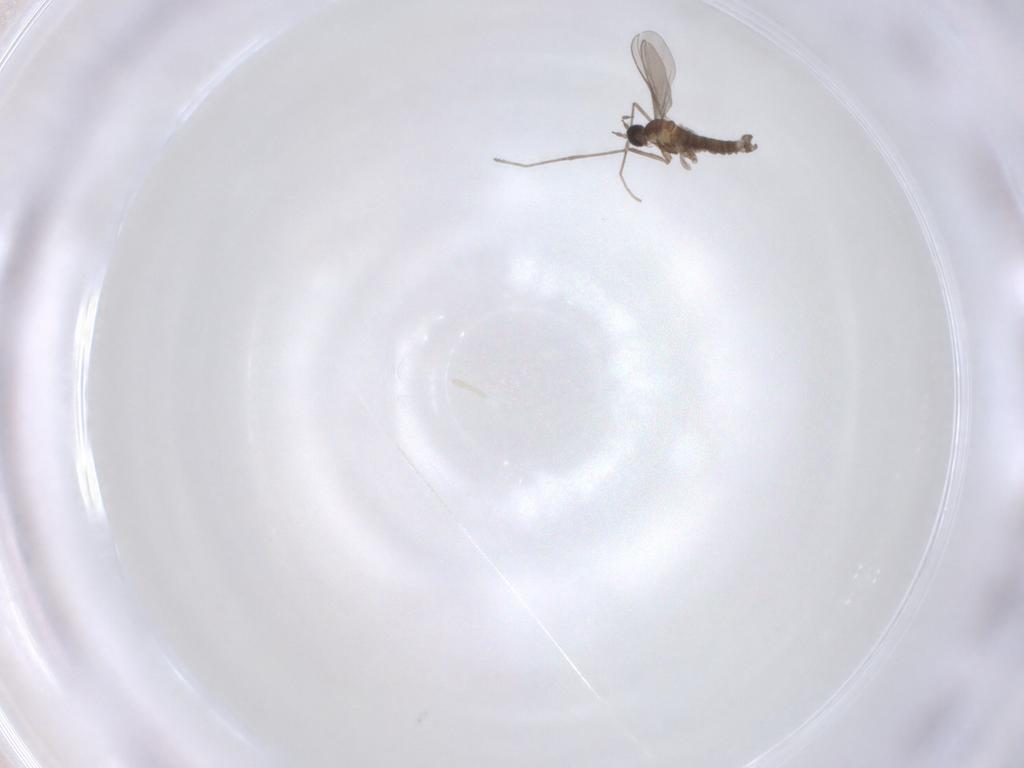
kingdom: Animalia
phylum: Arthropoda
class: Insecta
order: Diptera
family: Cecidomyiidae
